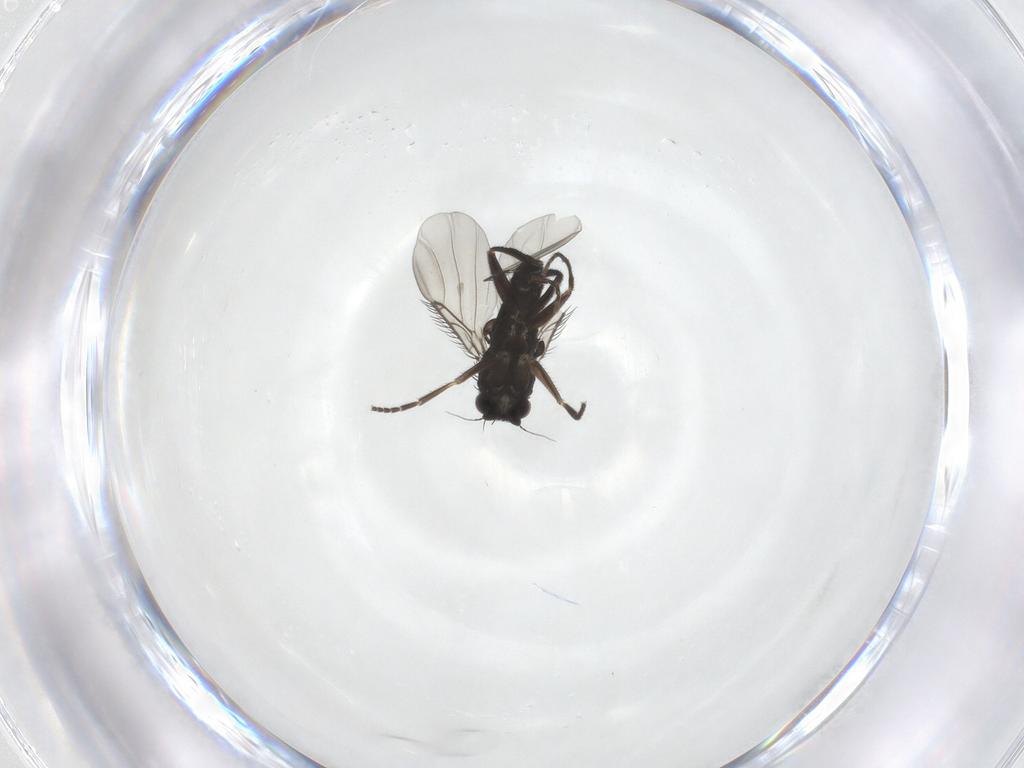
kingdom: Animalia
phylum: Arthropoda
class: Insecta
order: Diptera
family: Phoridae
